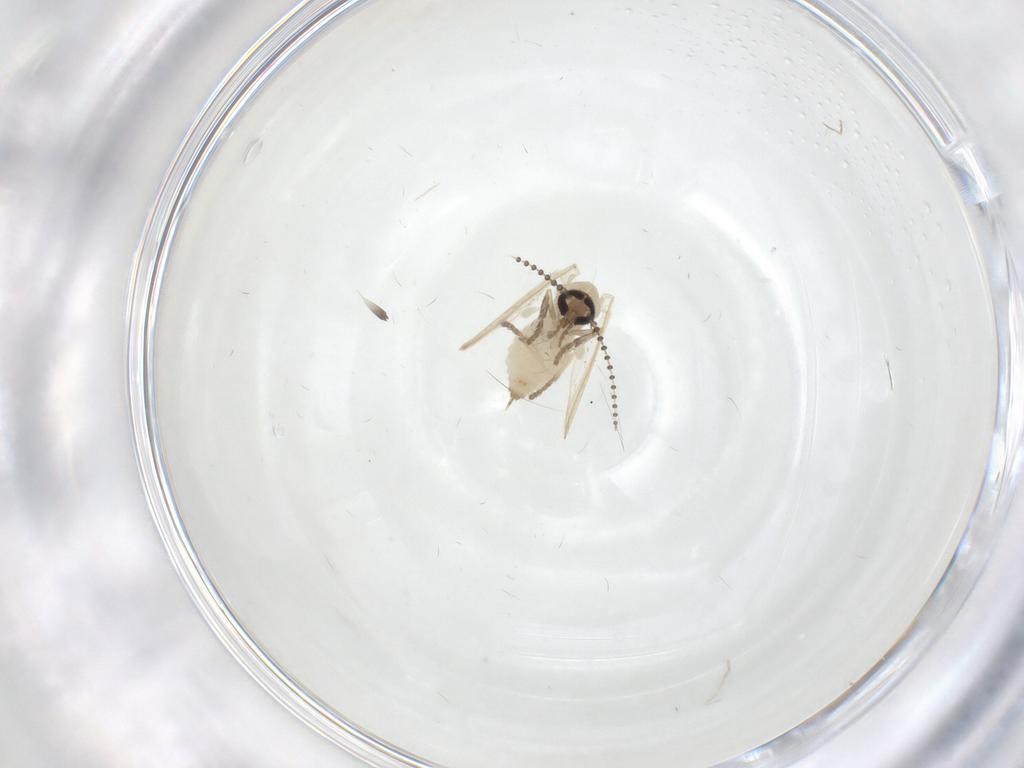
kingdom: Animalia
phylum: Arthropoda
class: Insecta
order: Diptera
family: Psychodidae
